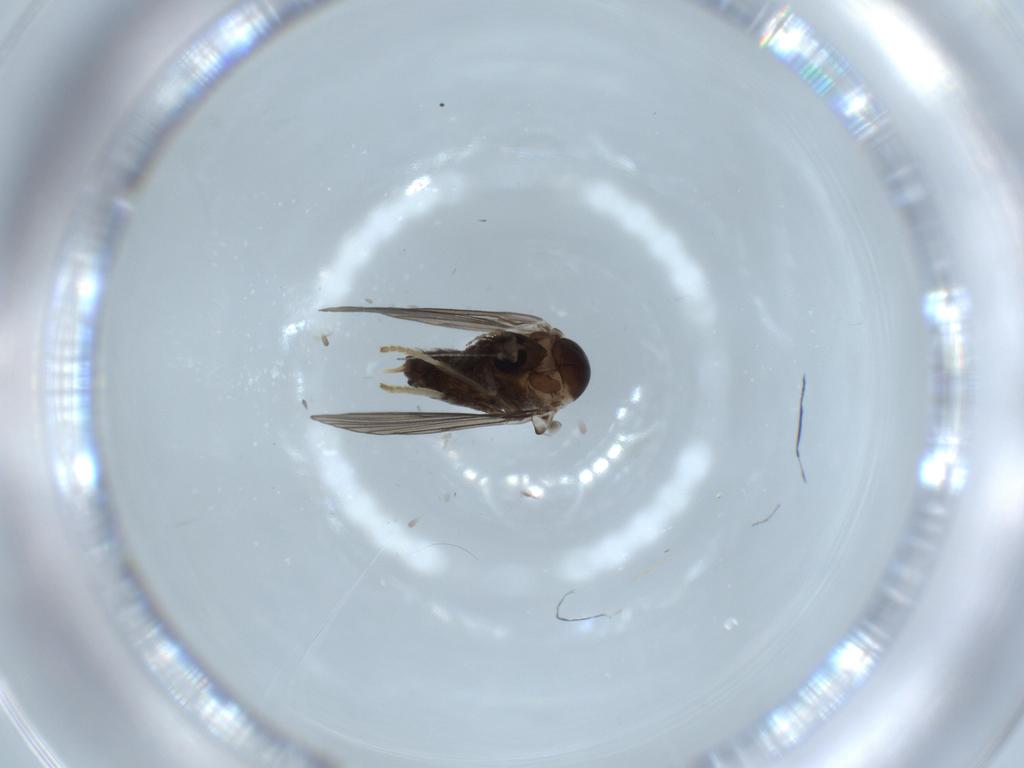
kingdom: Animalia
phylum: Arthropoda
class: Insecta
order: Diptera
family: Psychodidae
